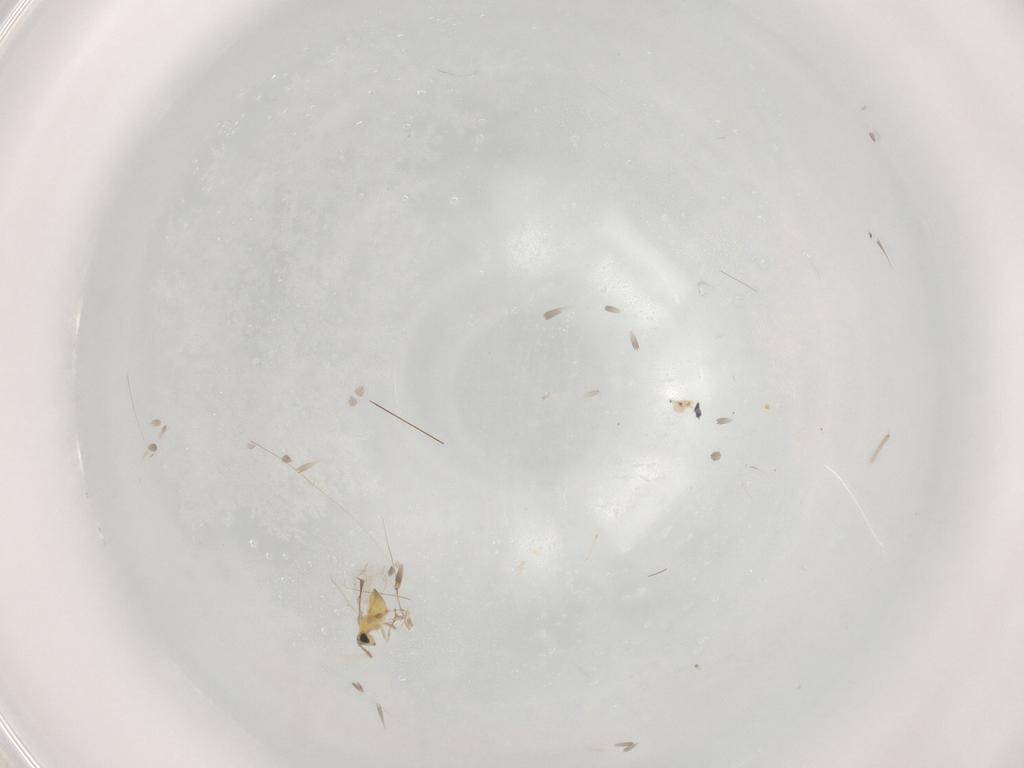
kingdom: Animalia
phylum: Arthropoda
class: Insecta
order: Hymenoptera
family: Trichogrammatidae
